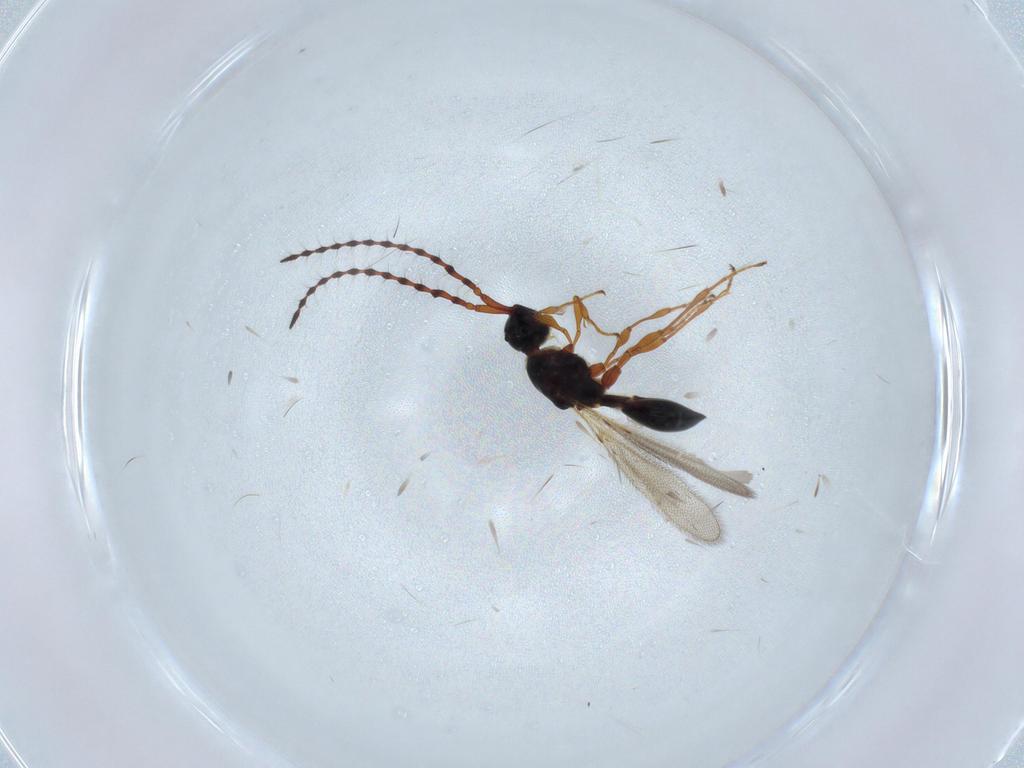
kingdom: Animalia
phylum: Arthropoda
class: Insecta
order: Hymenoptera
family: Diapriidae
